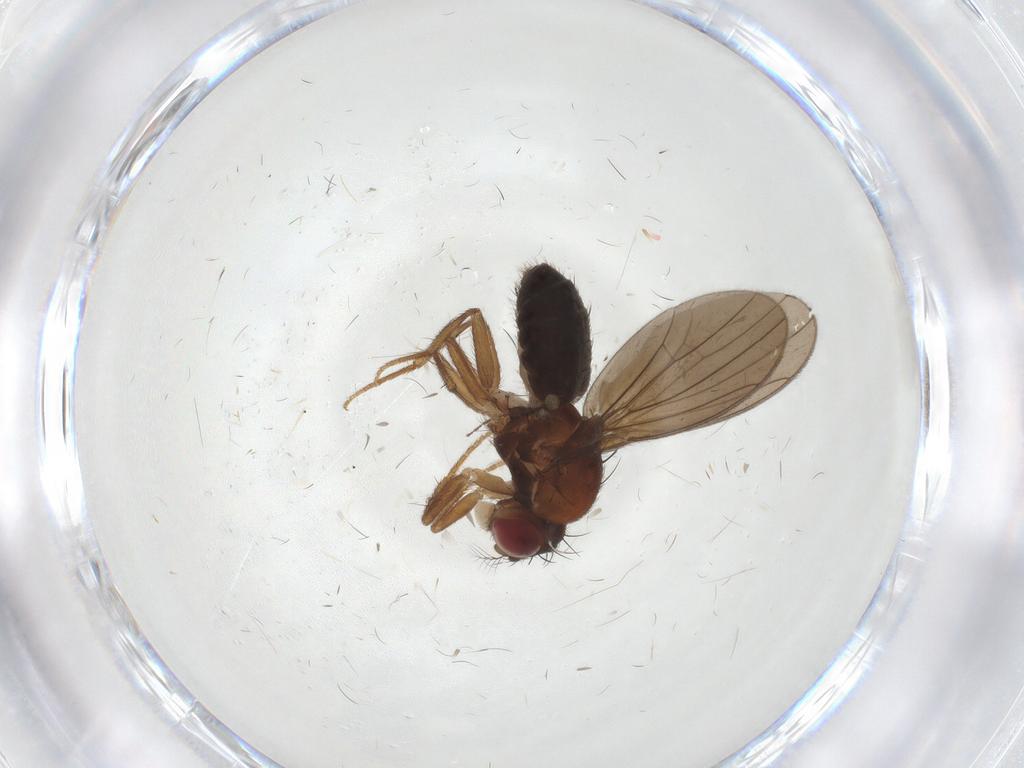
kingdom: Animalia
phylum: Arthropoda
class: Insecta
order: Diptera
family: Drosophilidae
